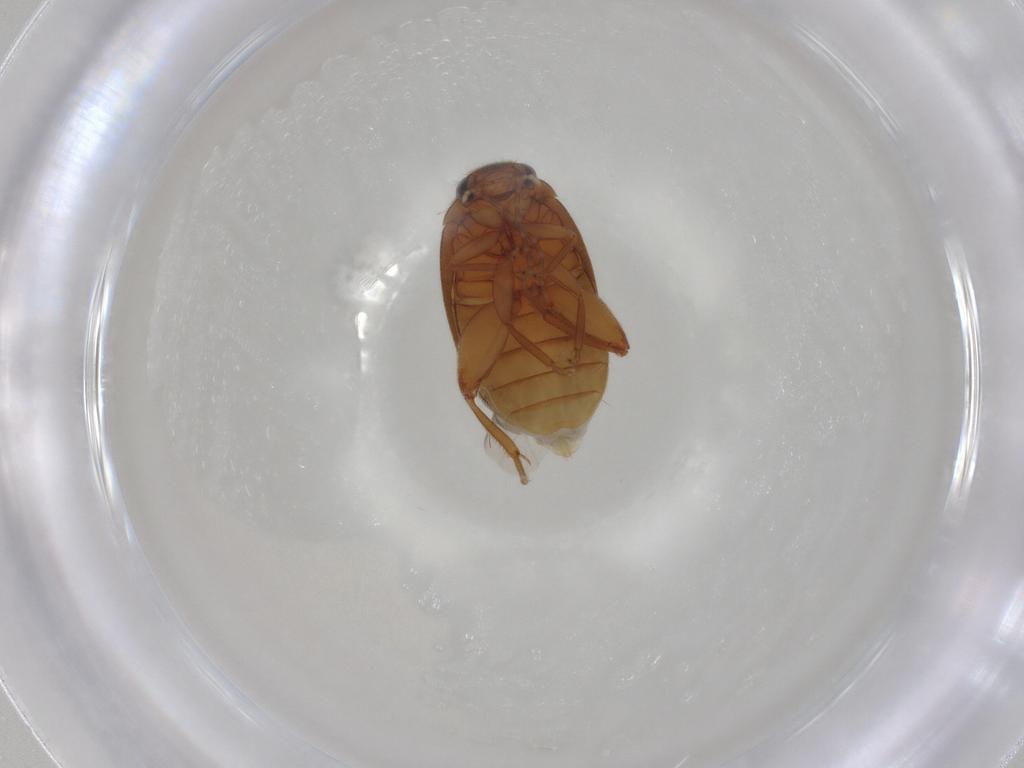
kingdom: Animalia
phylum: Arthropoda
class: Insecta
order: Coleoptera
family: Scirtidae
